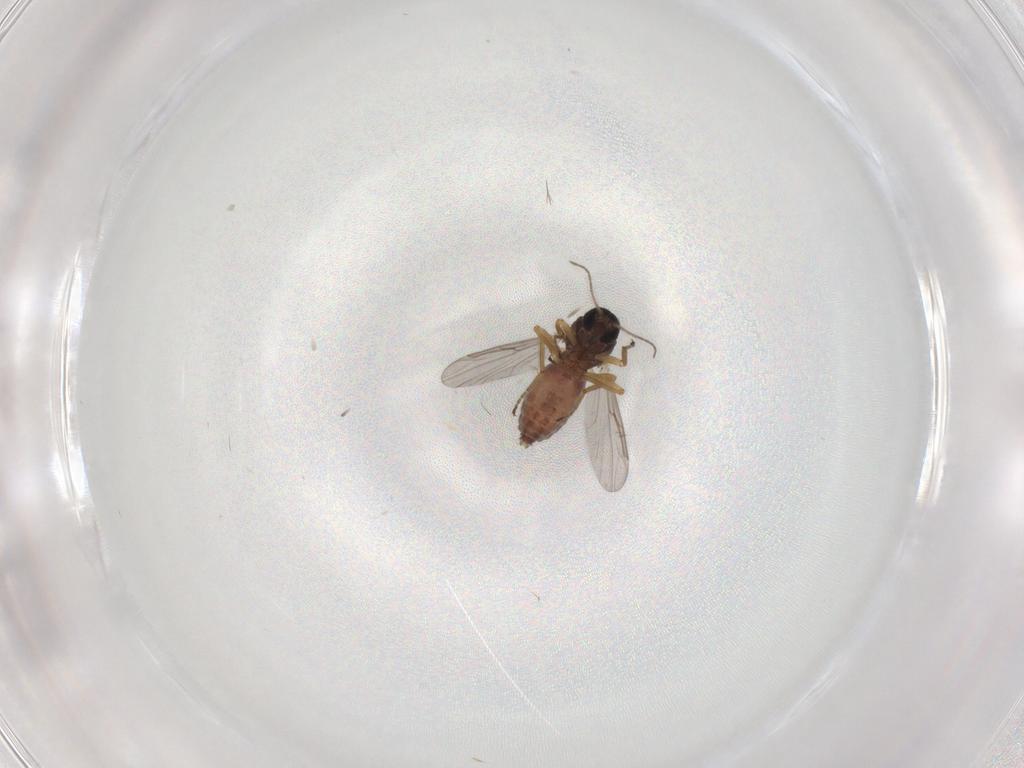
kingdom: Animalia
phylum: Arthropoda
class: Insecta
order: Diptera
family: Ceratopogonidae
